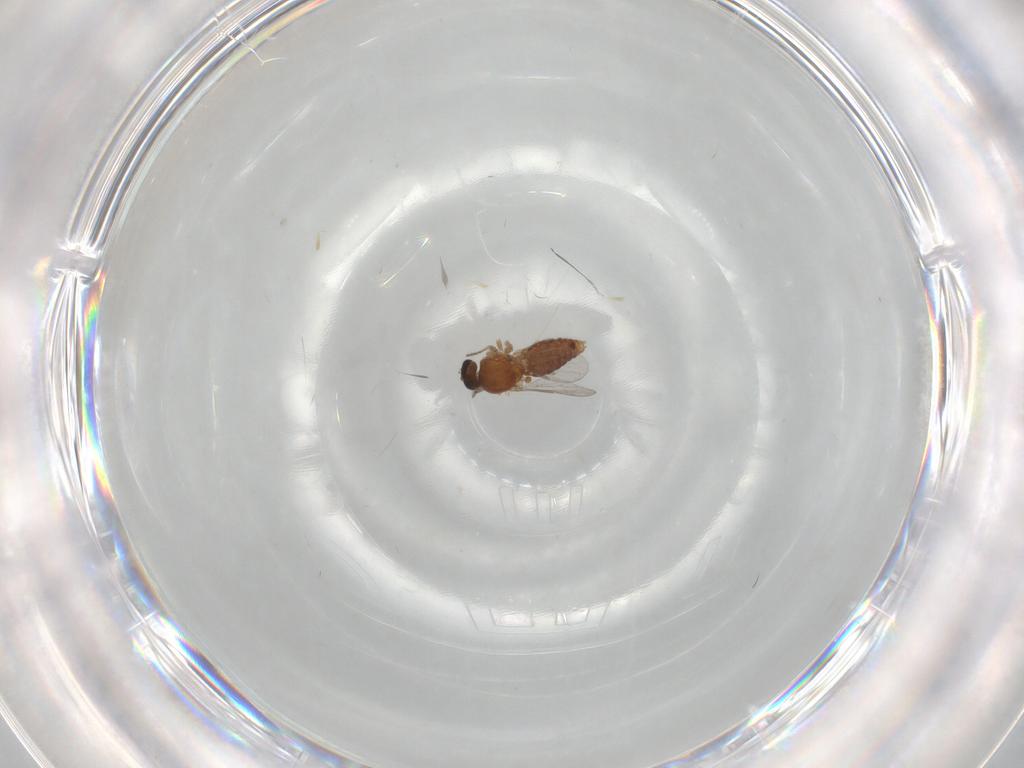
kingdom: Animalia
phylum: Arthropoda
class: Insecta
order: Diptera
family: Ceratopogonidae
